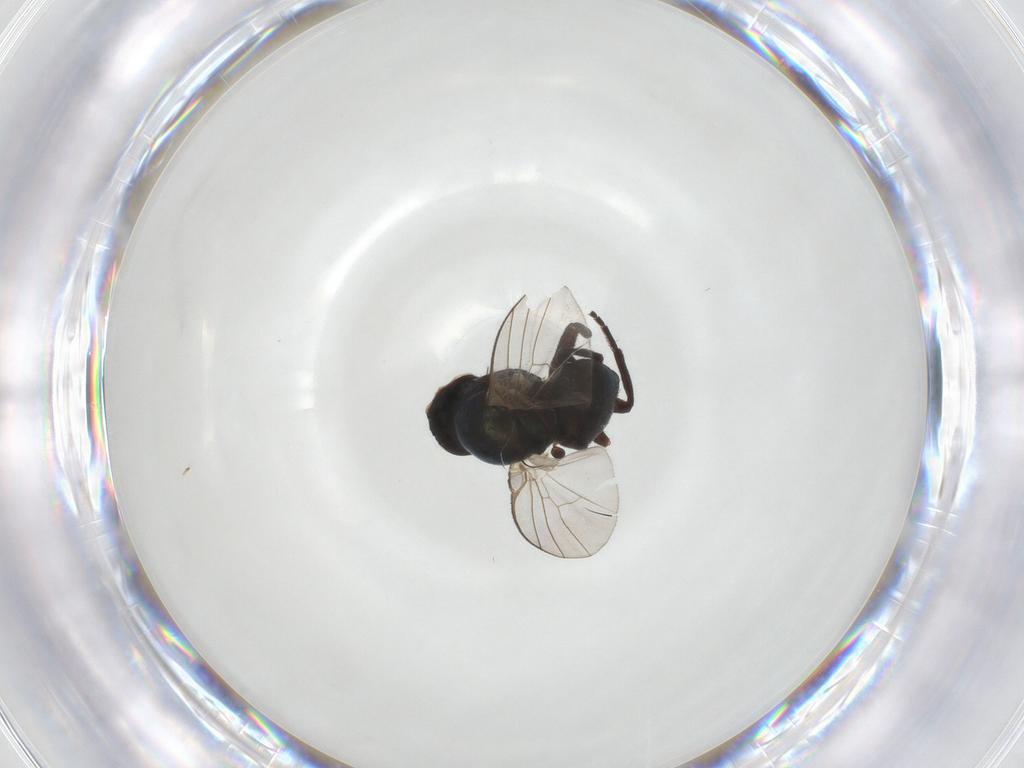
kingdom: Animalia
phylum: Arthropoda
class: Insecta
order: Diptera
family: Agromyzidae
